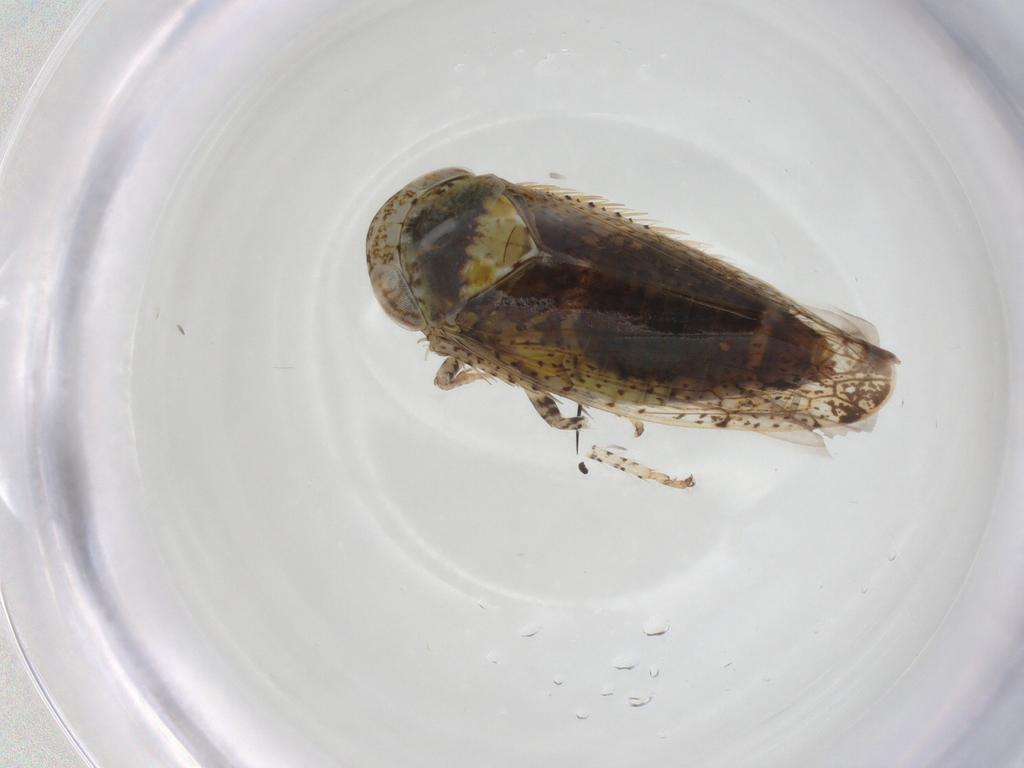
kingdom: Animalia
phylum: Arthropoda
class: Insecta
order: Hemiptera
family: Cicadellidae
